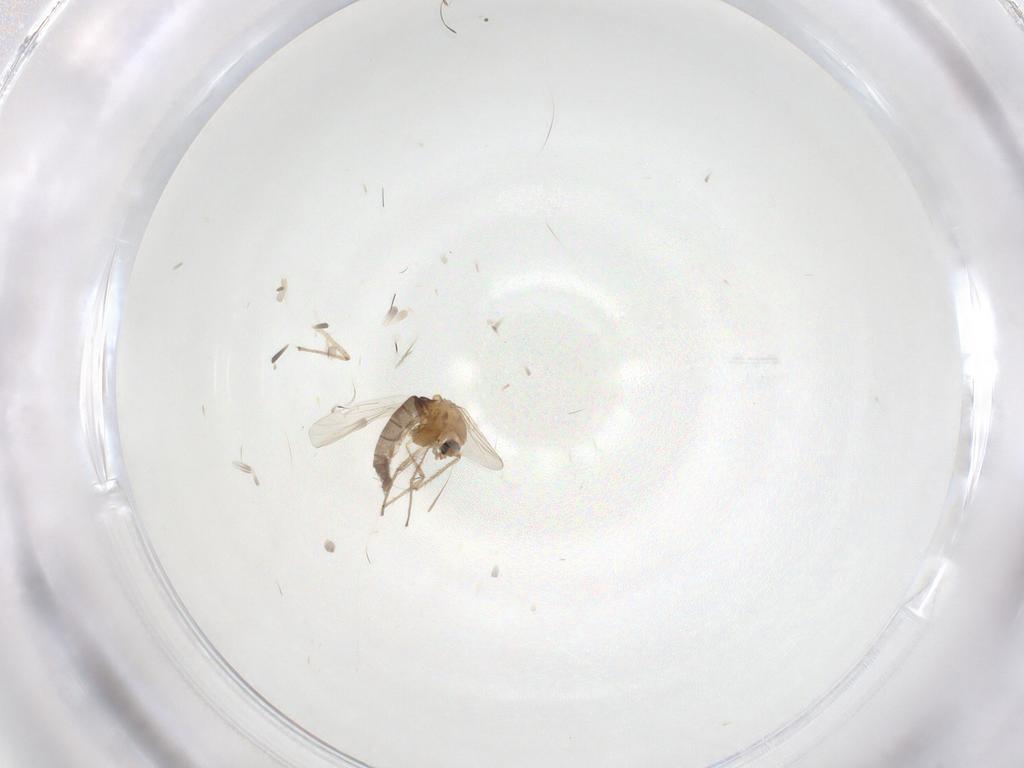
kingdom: Animalia
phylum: Arthropoda
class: Insecta
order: Diptera
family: Chironomidae
